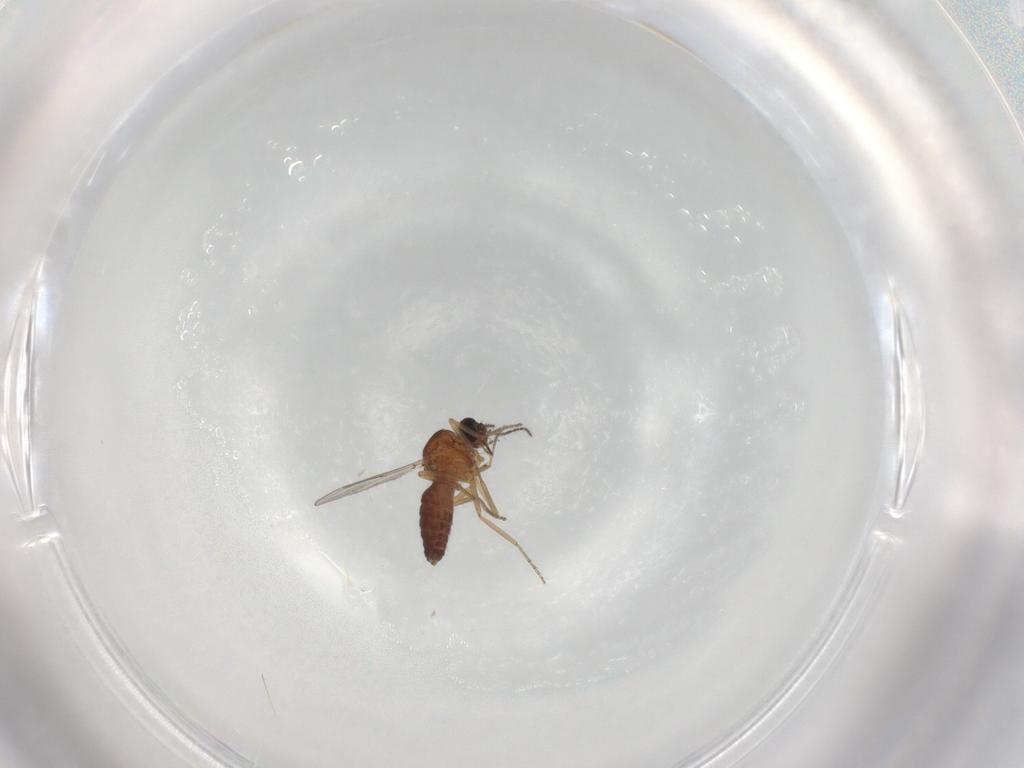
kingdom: Animalia
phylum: Arthropoda
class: Insecta
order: Diptera
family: Ceratopogonidae
